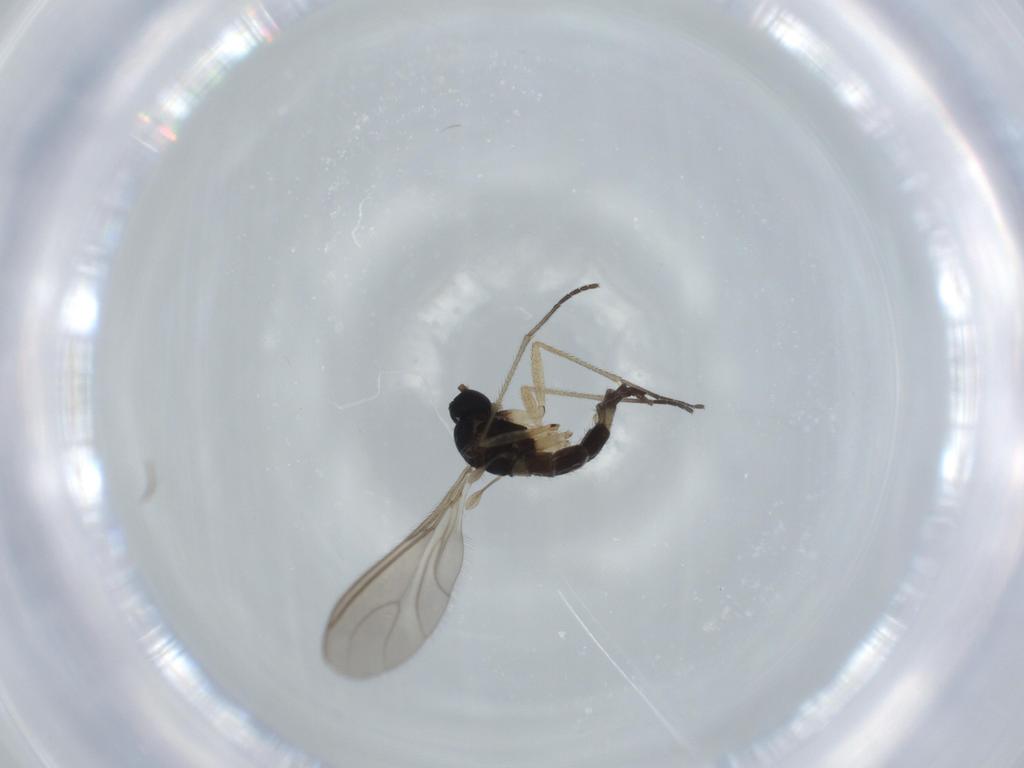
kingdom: Animalia
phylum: Arthropoda
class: Insecta
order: Diptera
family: Sciaridae
